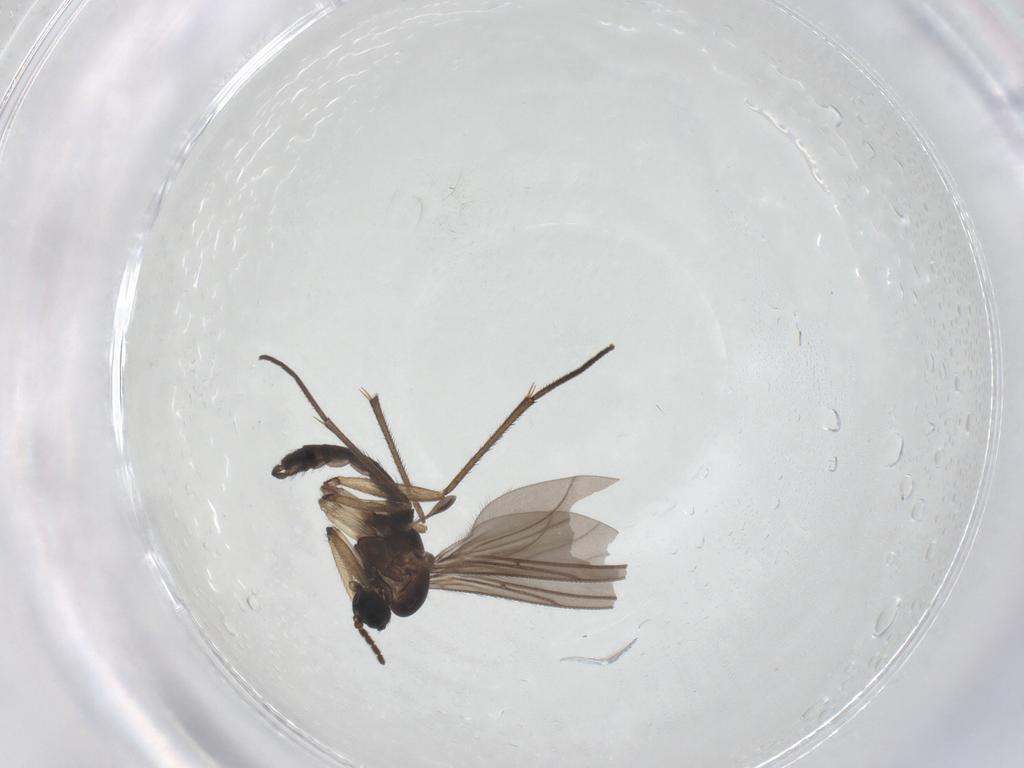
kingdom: Animalia
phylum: Arthropoda
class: Insecta
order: Diptera
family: Sciaridae
